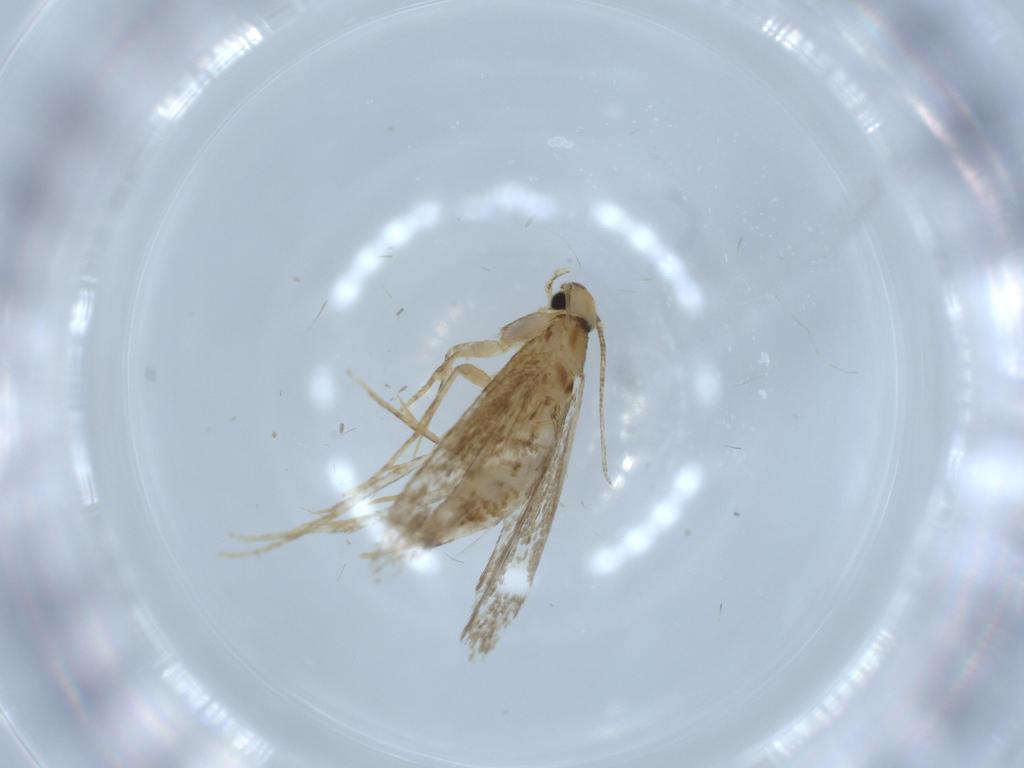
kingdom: Animalia
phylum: Arthropoda
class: Insecta
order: Lepidoptera
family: Tineidae
